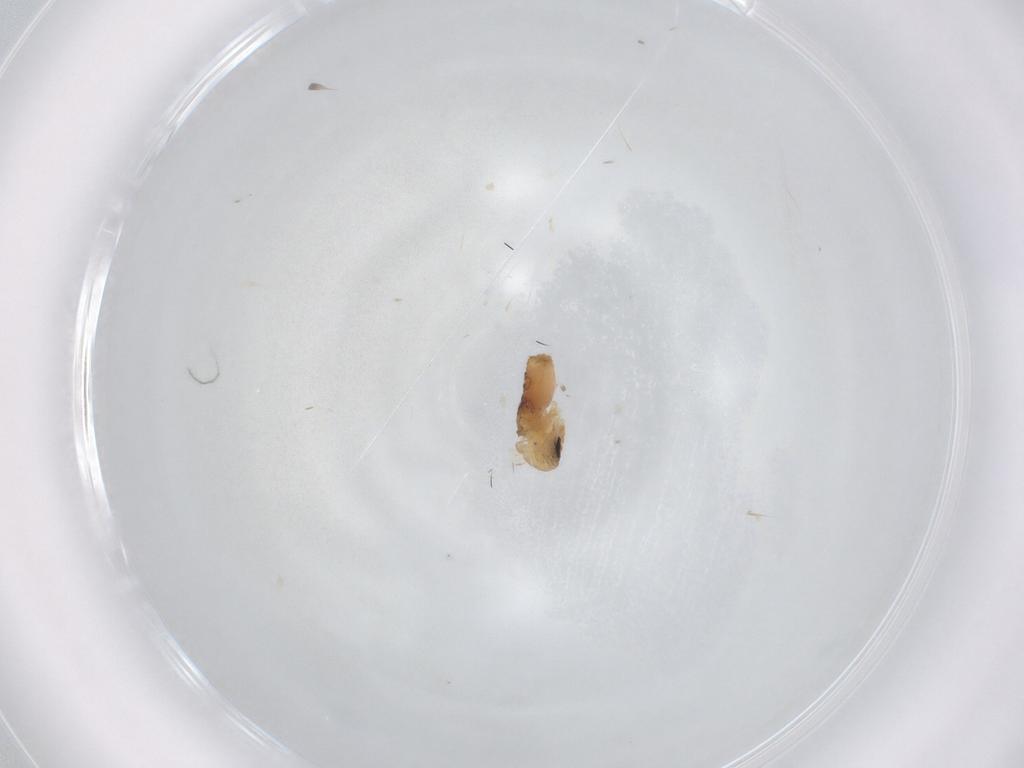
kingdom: Animalia
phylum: Arthropoda
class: Insecta
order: Diptera
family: Psychodidae
